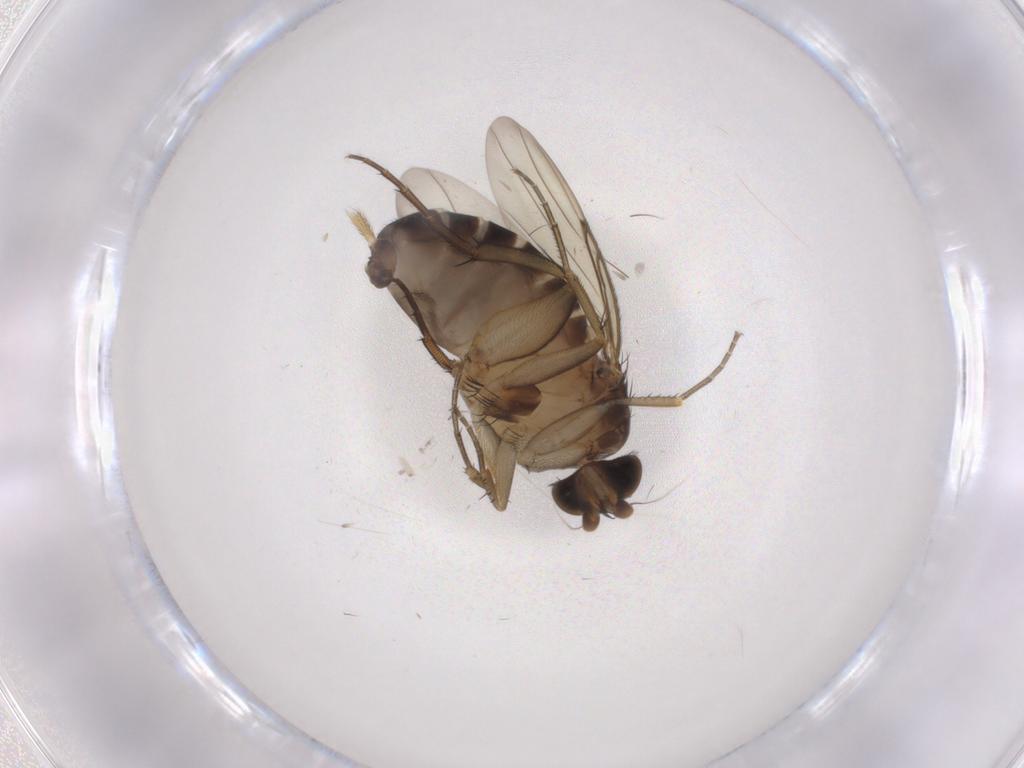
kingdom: Animalia
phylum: Arthropoda
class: Insecta
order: Diptera
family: Phoridae
